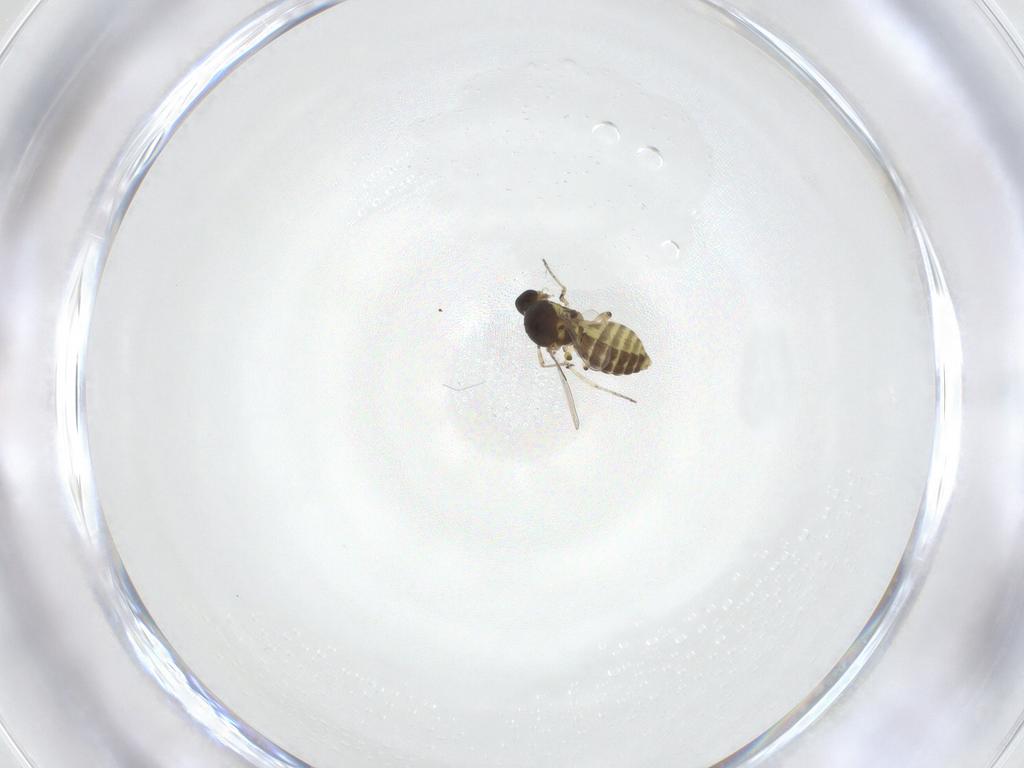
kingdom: Animalia
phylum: Arthropoda
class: Insecta
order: Diptera
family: Ceratopogonidae
